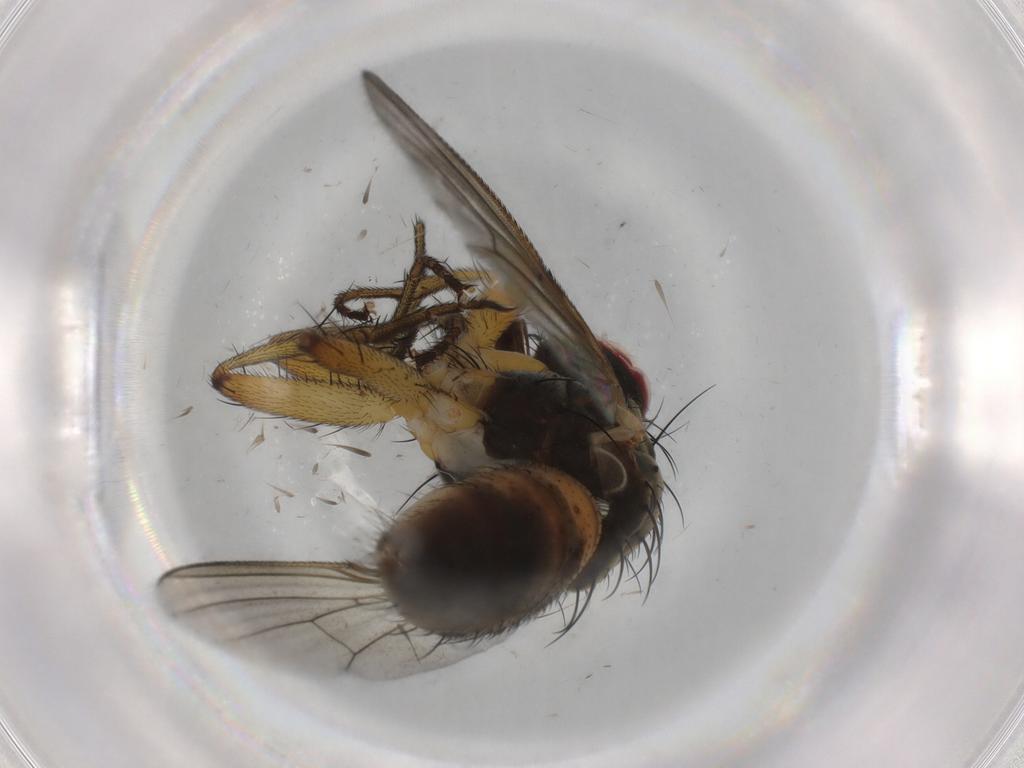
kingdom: Animalia
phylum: Arthropoda
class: Insecta
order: Diptera
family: Muscidae
